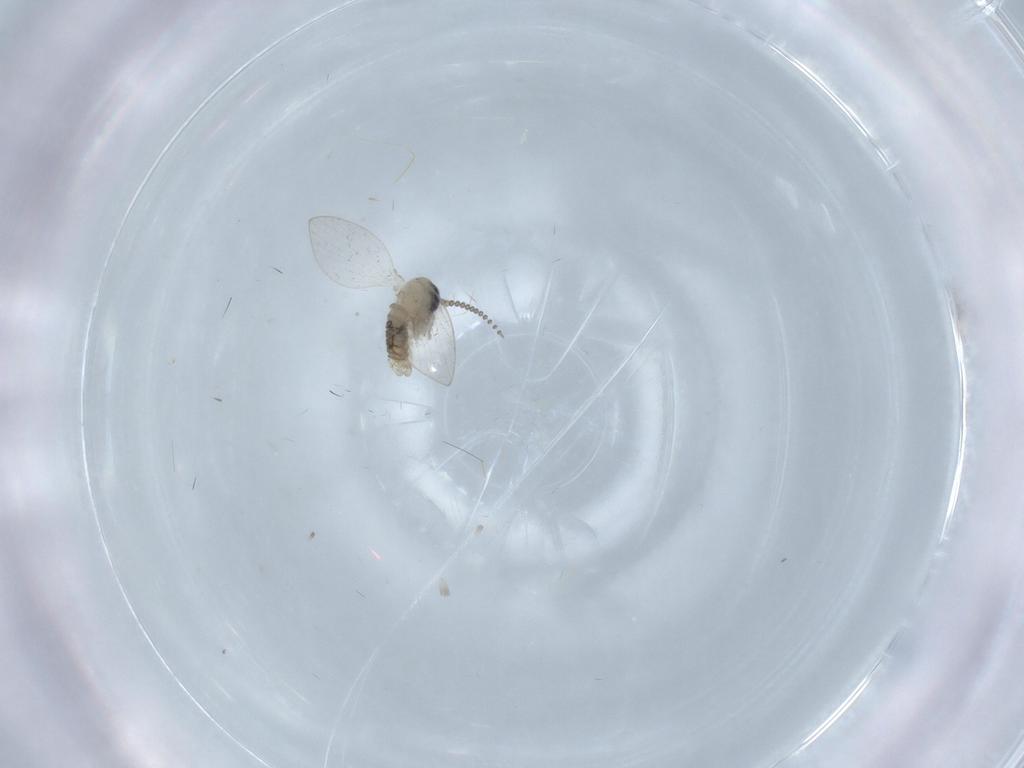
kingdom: Animalia
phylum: Arthropoda
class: Insecta
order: Diptera
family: Psychodidae
